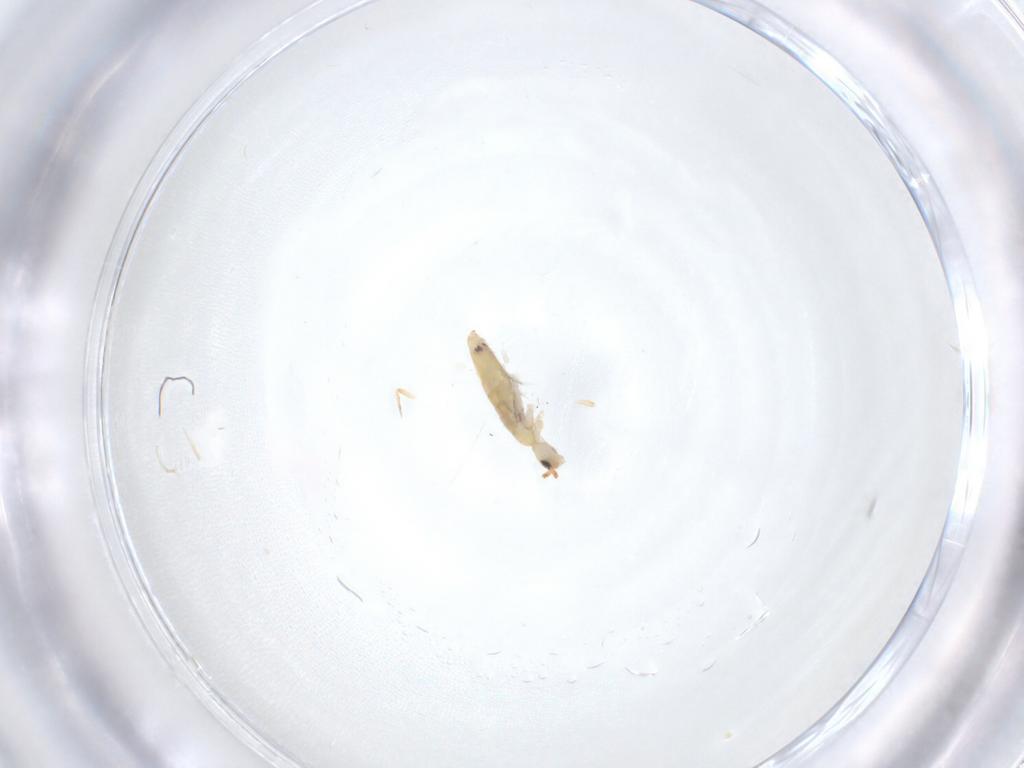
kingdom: Animalia
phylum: Arthropoda
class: Collembola
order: Entomobryomorpha
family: Entomobryidae
